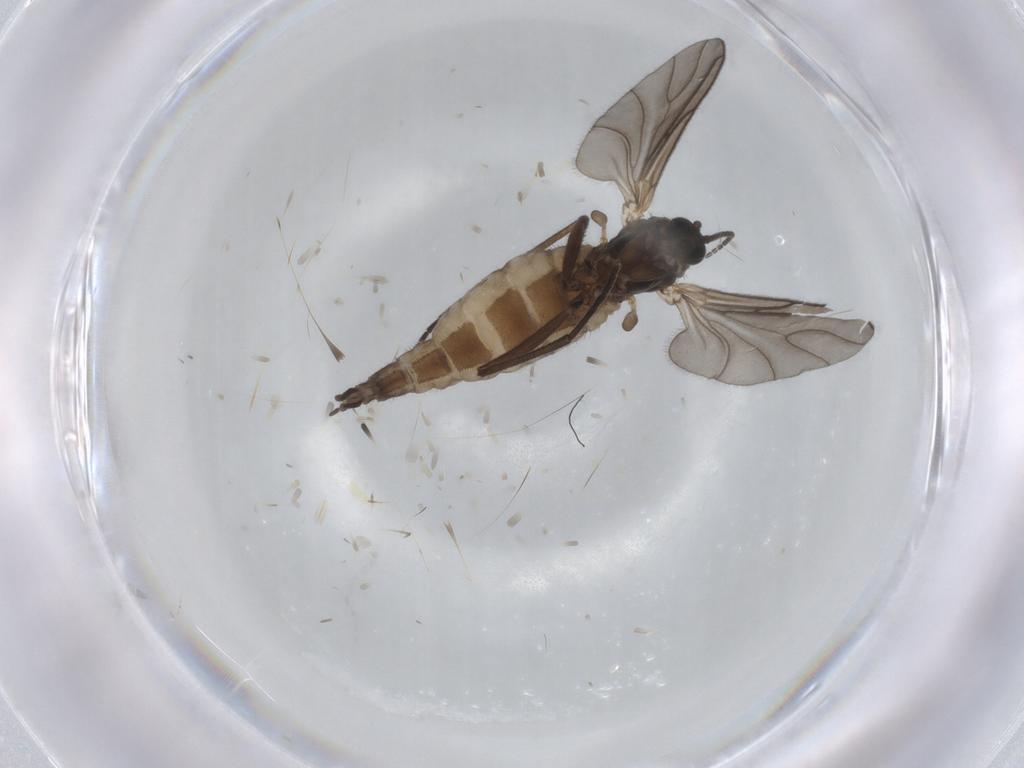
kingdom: Animalia
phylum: Arthropoda
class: Insecta
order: Diptera
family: Sciaridae
